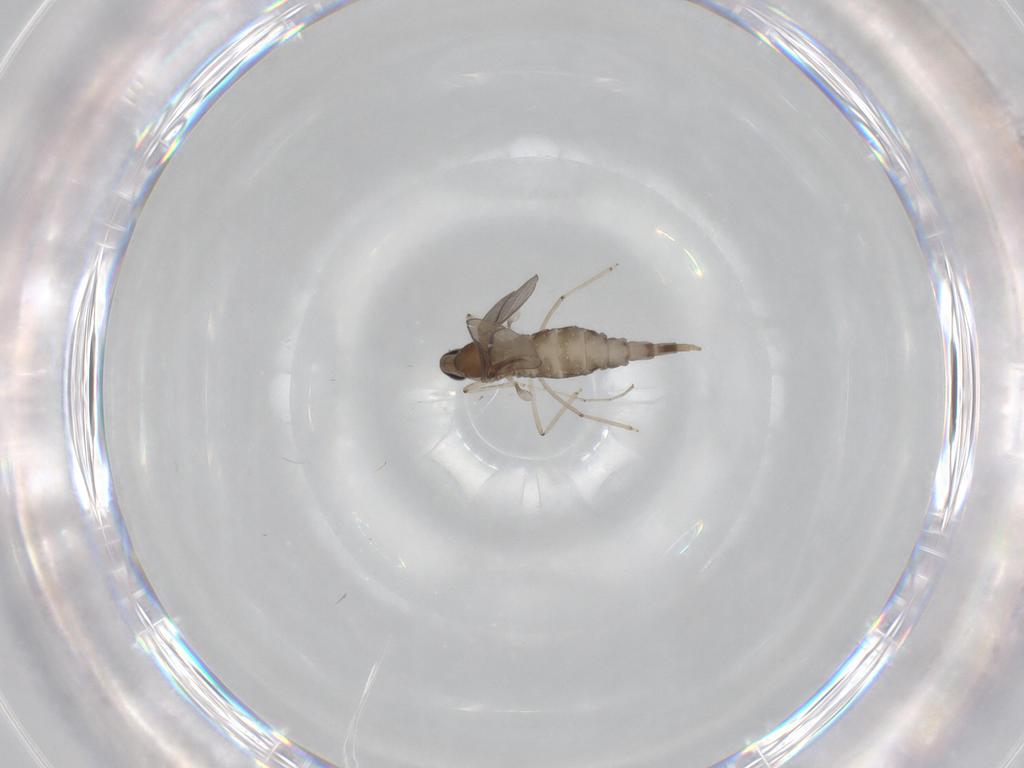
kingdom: Animalia
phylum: Arthropoda
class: Insecta
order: Diptera
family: Cecidomyiidae
